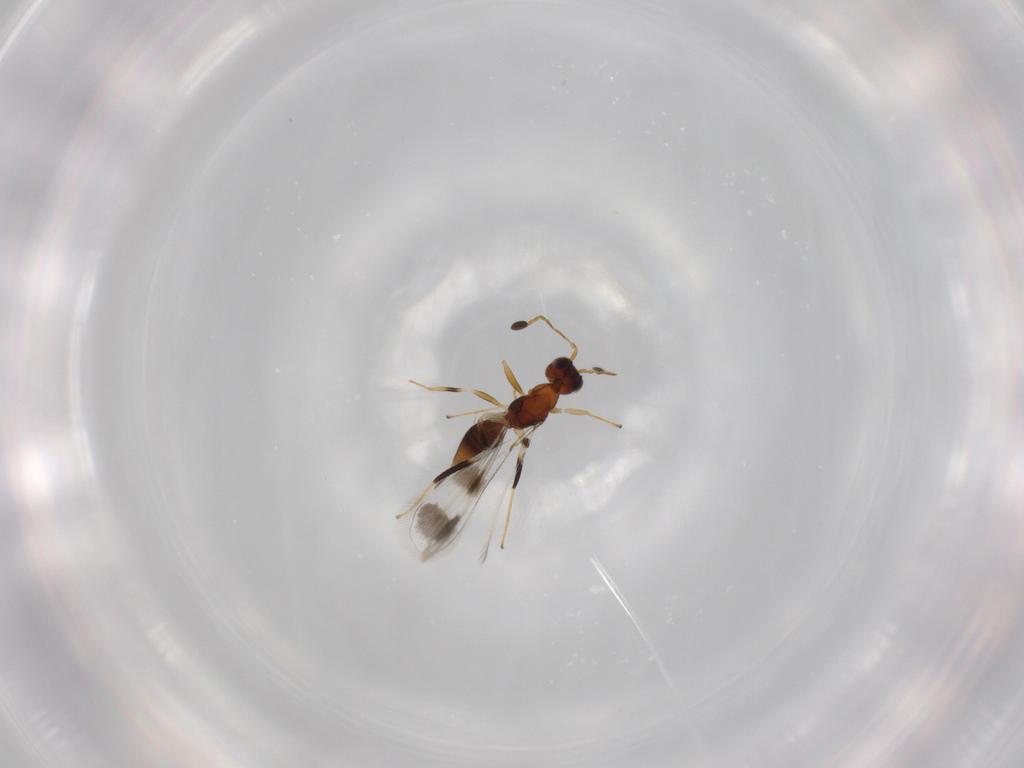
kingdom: Animalia
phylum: Arthropoda
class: Insecta
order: Hymenoptera
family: Mymaridae
